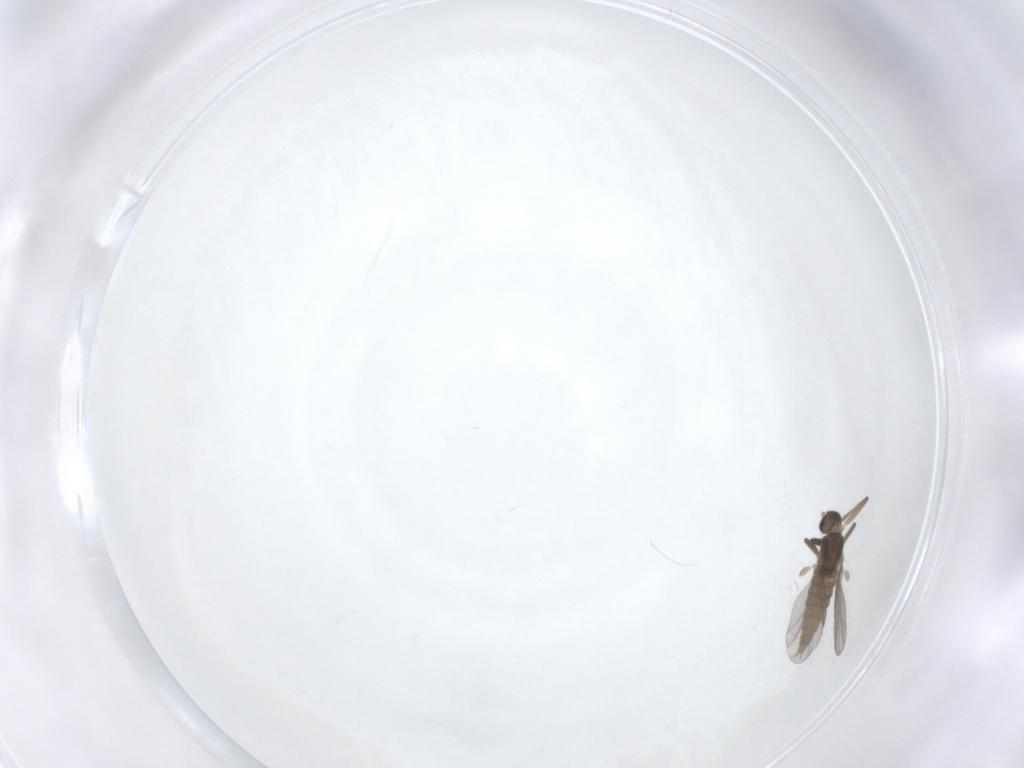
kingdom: Animalia
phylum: Arthropoda
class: Insecta
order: Diptera
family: Cecidomyiidae
